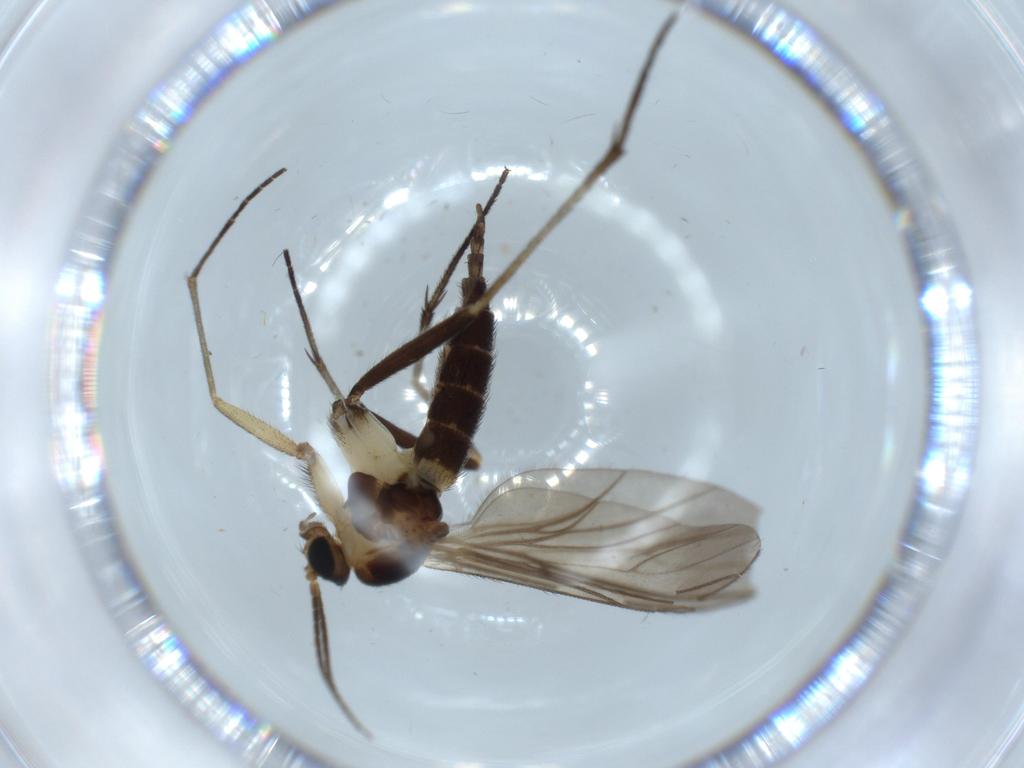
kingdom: Animalia
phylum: Arthropoda
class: Insecta
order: Diptera
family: Sciaridae
